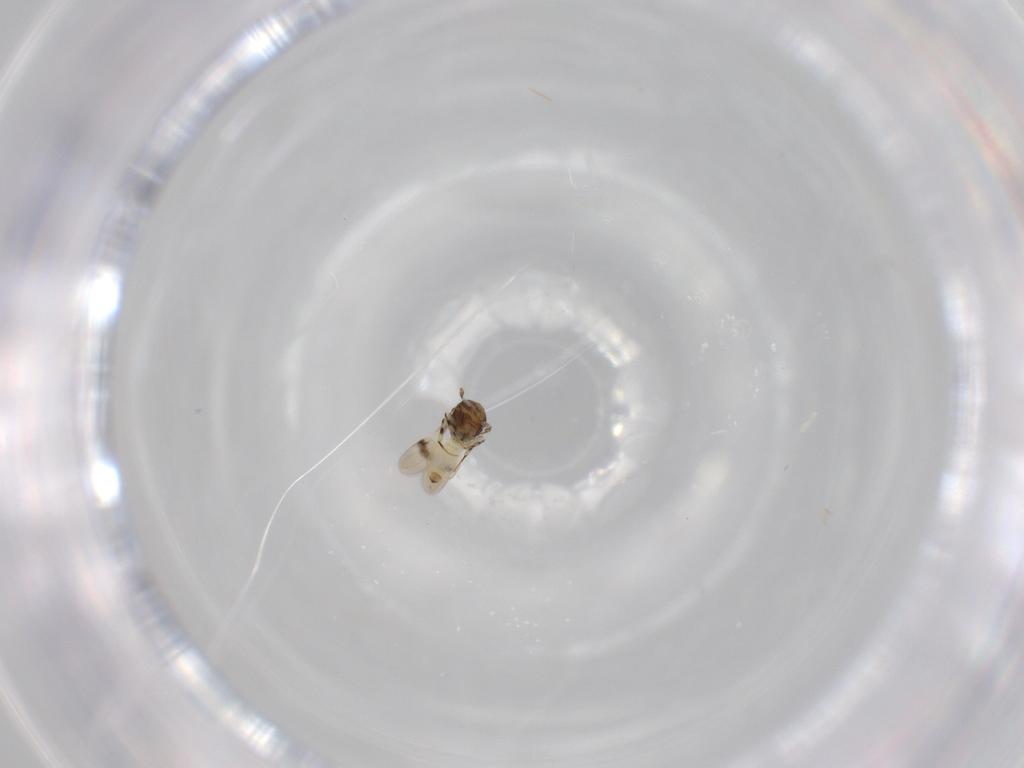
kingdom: Animalia
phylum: Arthropoda
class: Insecta
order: Hymenoptera
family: Scelionidae
